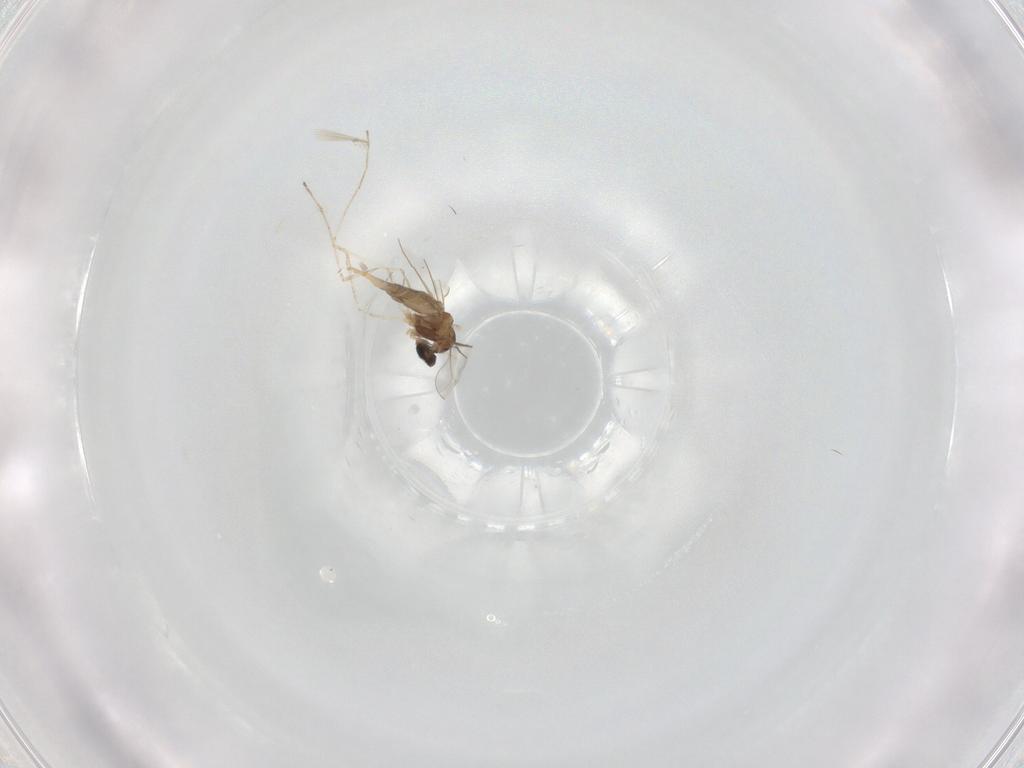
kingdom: Animalia
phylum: Arthropoda
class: Insecta
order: Diptera
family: Cecidomyiidae
